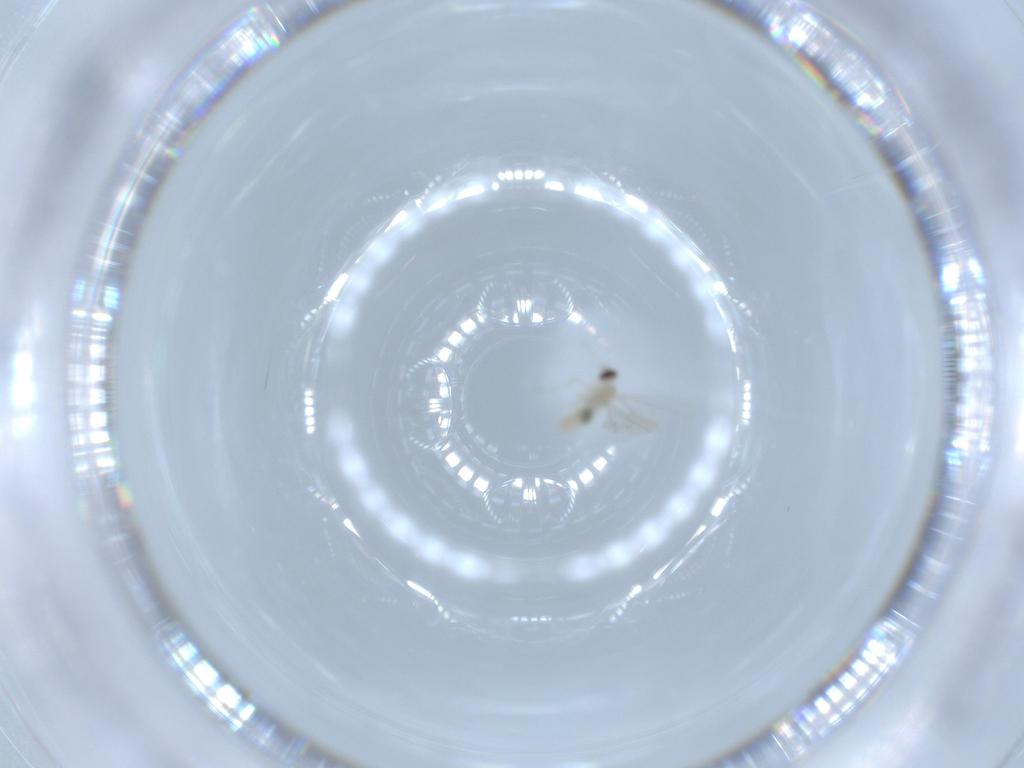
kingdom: Animalia
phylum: Arthropoda
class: Insecta
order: Diptera
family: Cecidomyiidae
